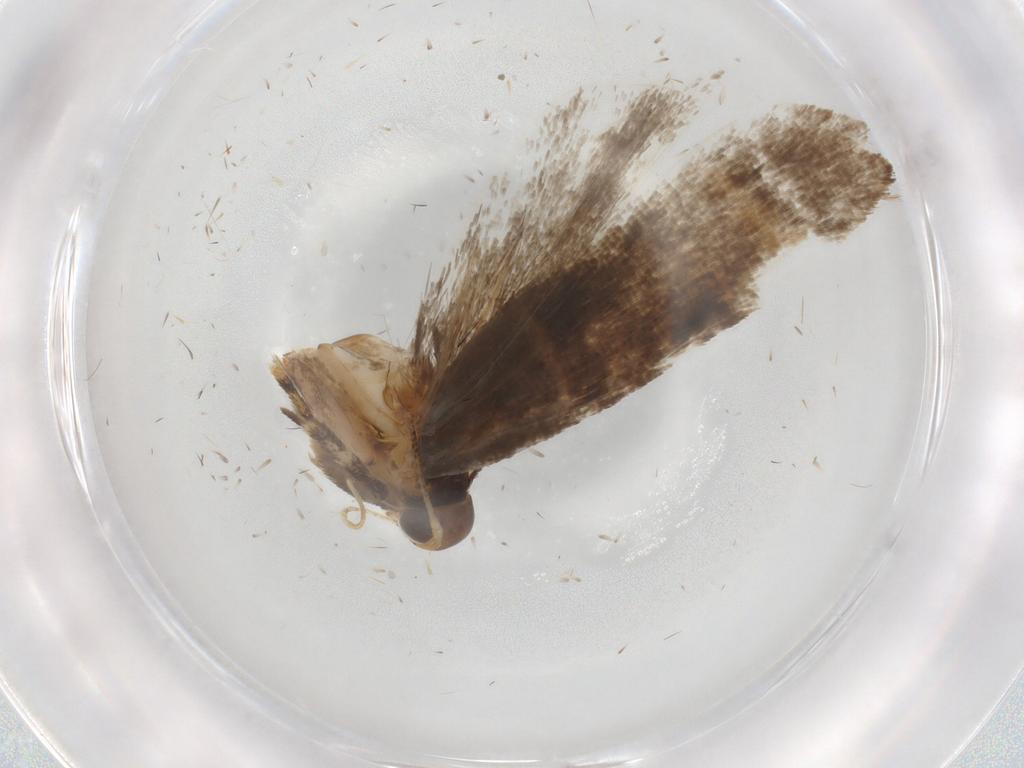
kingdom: Animalia
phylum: Arthropoda
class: Insecta
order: Lepidoptera
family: Gelechiidae
